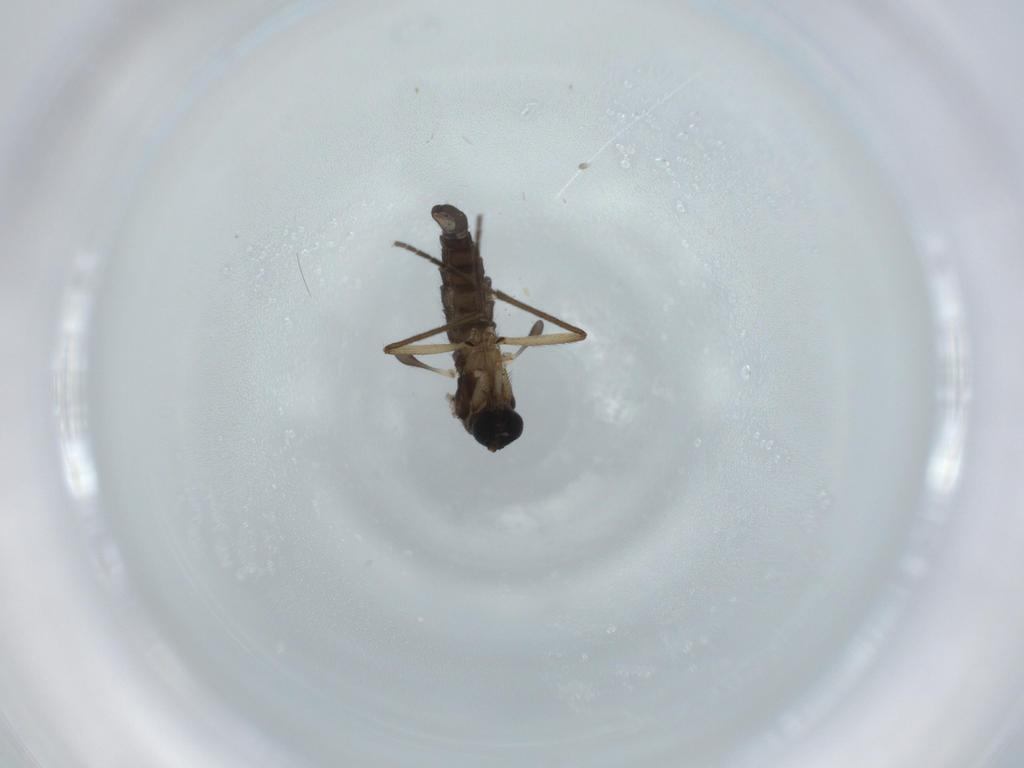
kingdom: Animalia
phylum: Arthropoda
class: Insecta
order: Diptera
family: Sciaridae
